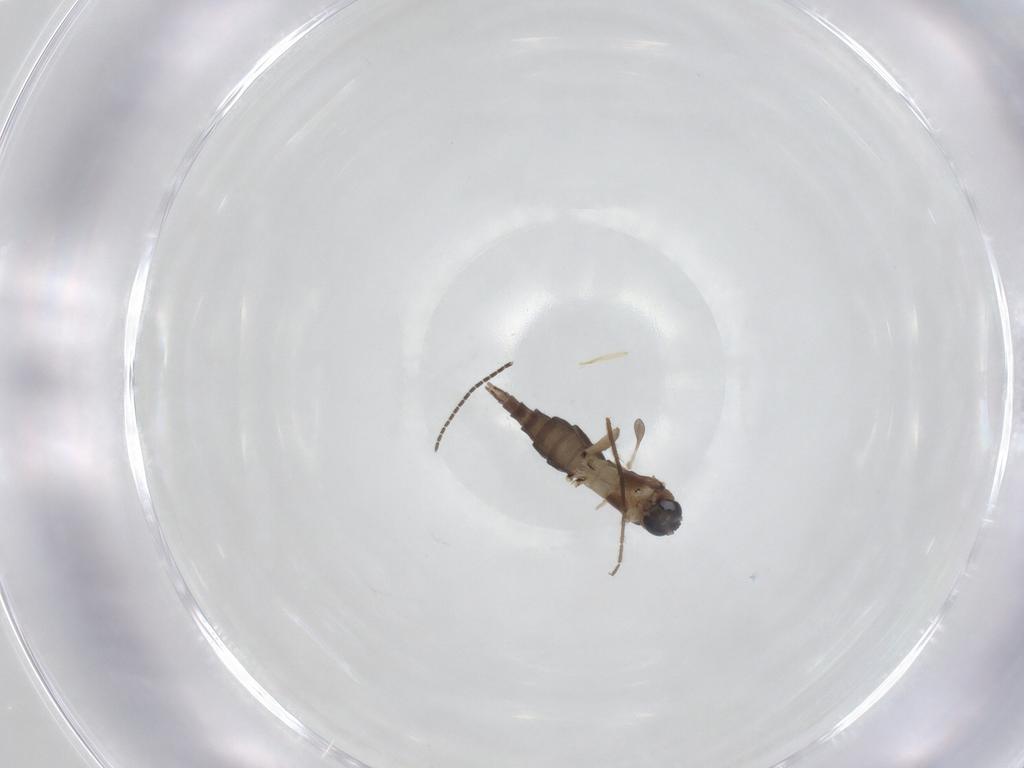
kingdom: Animalia
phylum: Arthropoda
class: Insecta
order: Diptera
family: Sciaridae
